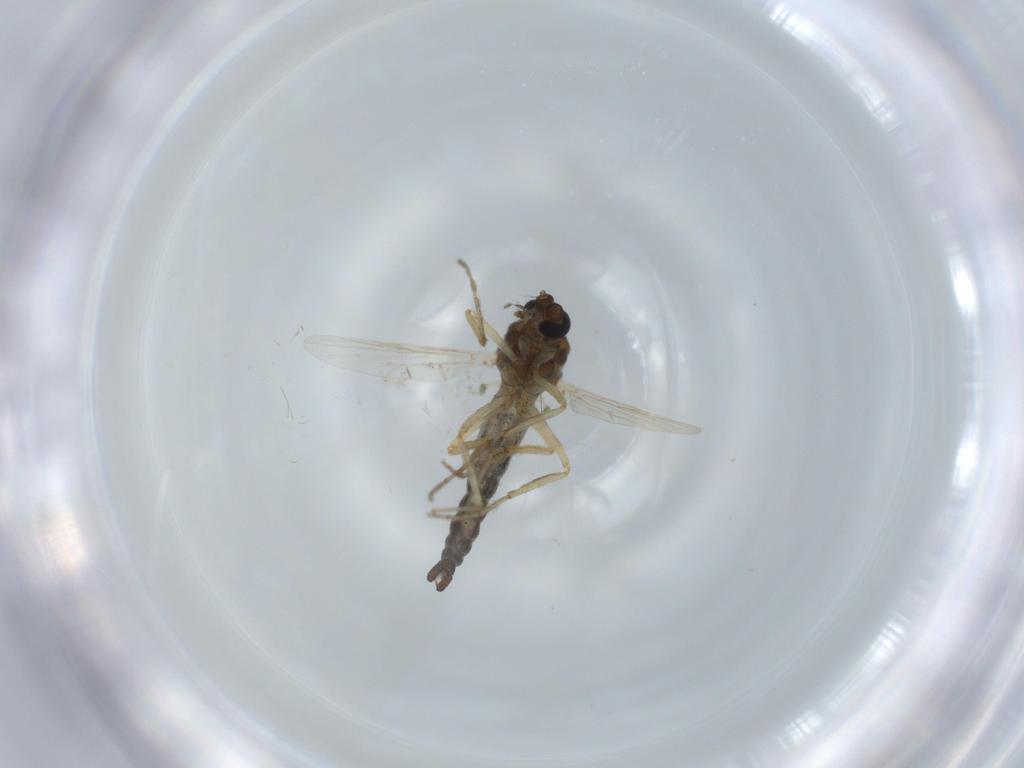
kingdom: Animalia
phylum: Arthropoda
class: Insecta
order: Diptera
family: Ceratopogonidae
